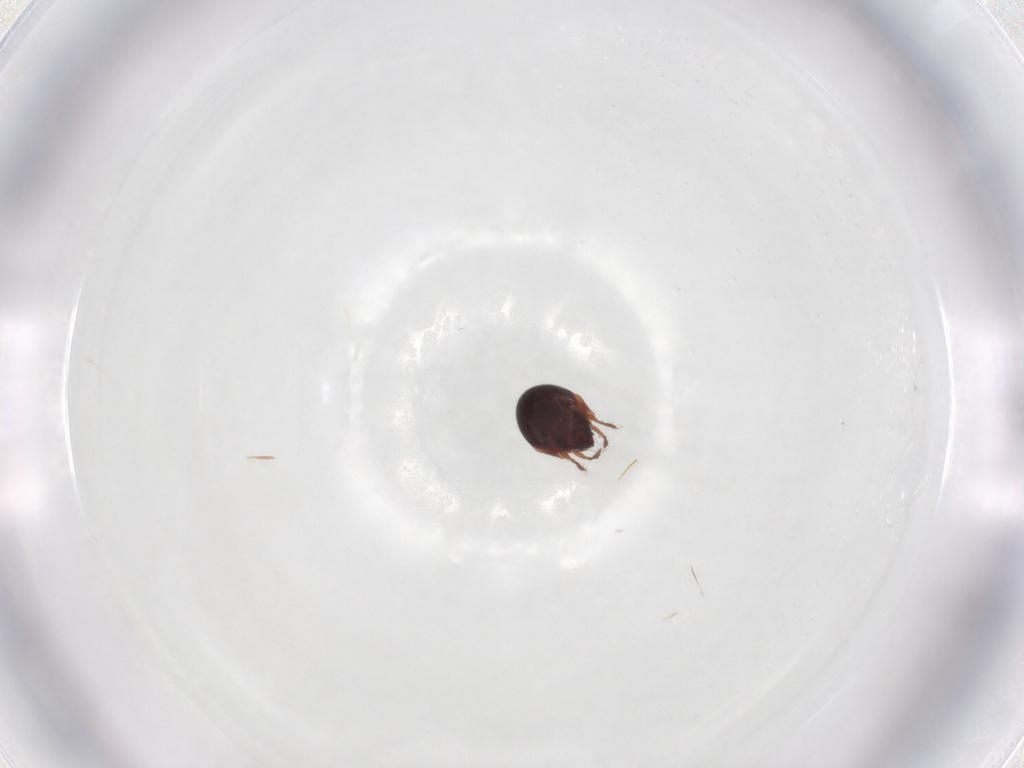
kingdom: Animalia
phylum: Arthropoda
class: Arachnida
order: Sarcoptiformes
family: Humerobatidae
